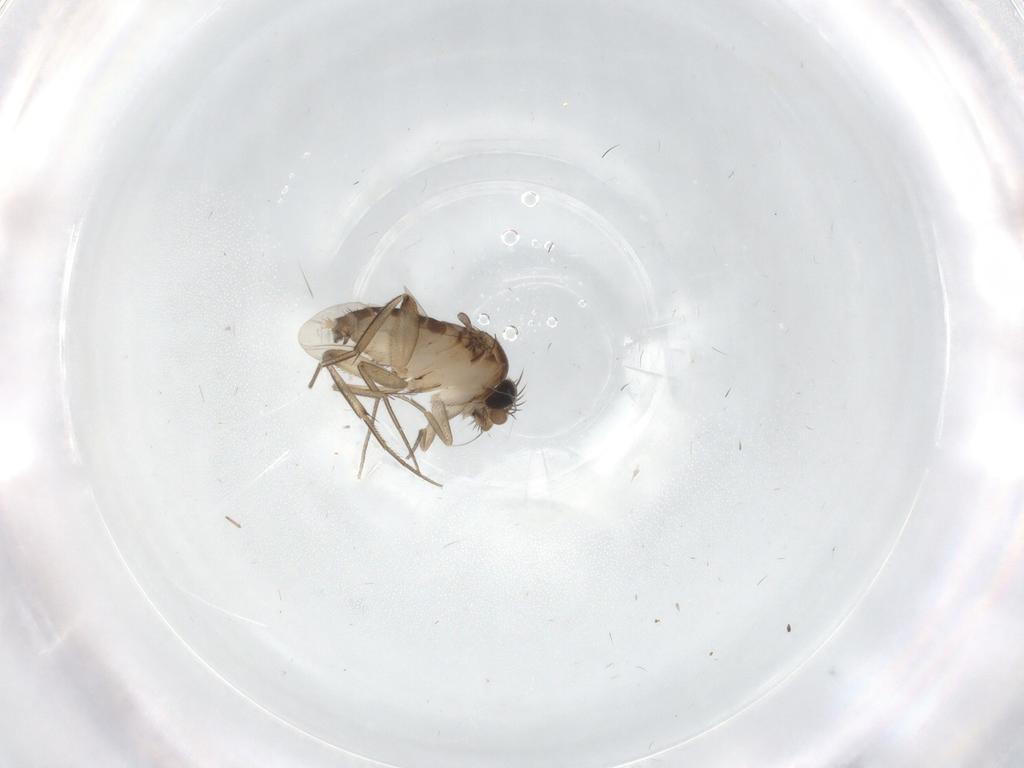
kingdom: Animalia
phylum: Arthropoda
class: Insecta
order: Diptera
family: Phoridae
